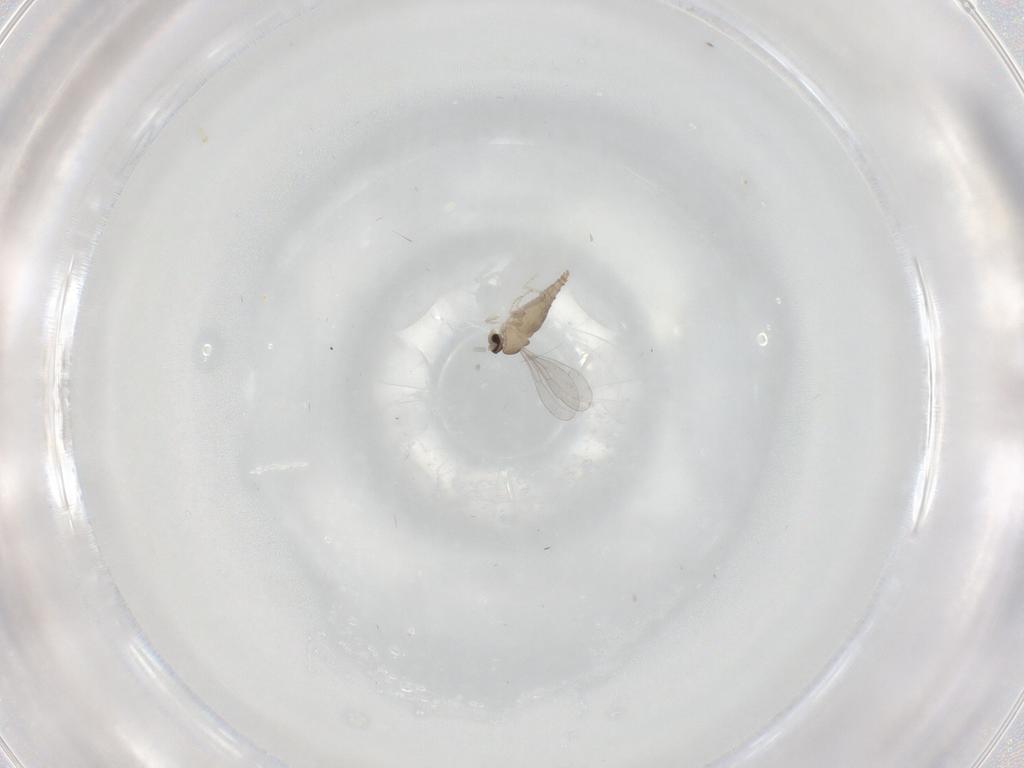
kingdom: Animalia
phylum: Arthropoda
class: Insecta
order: Diptera
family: Cecidomyiidae
